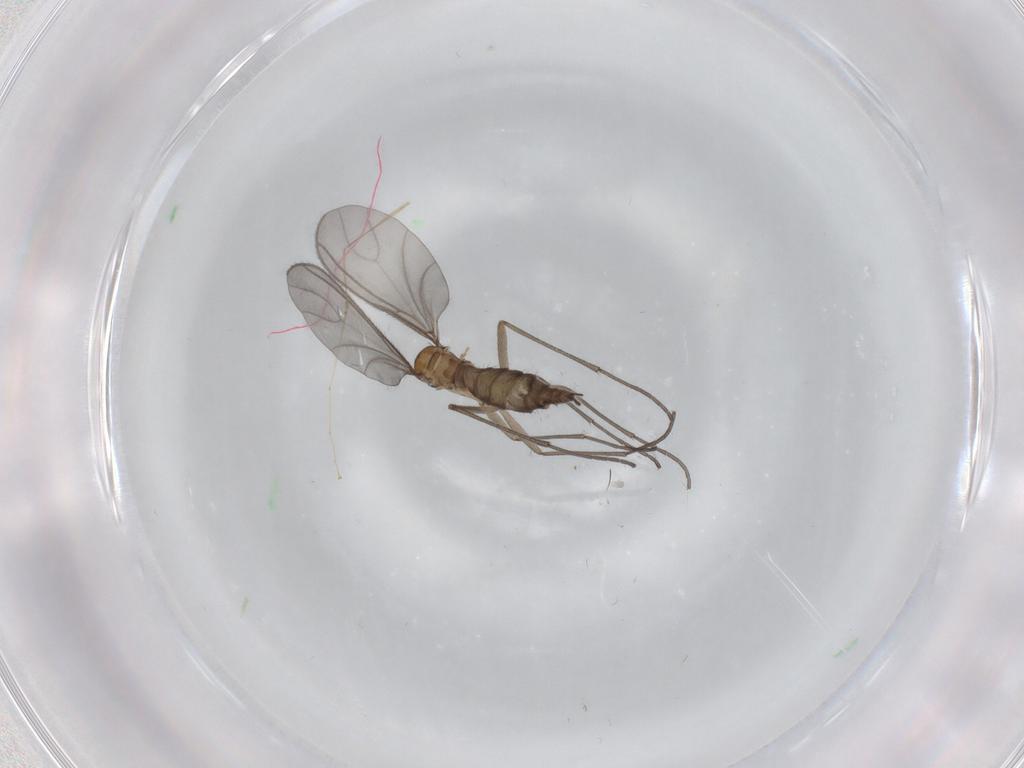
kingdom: Animalia
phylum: Arthropoda
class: Insecta
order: Diptera
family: Sciaridae
